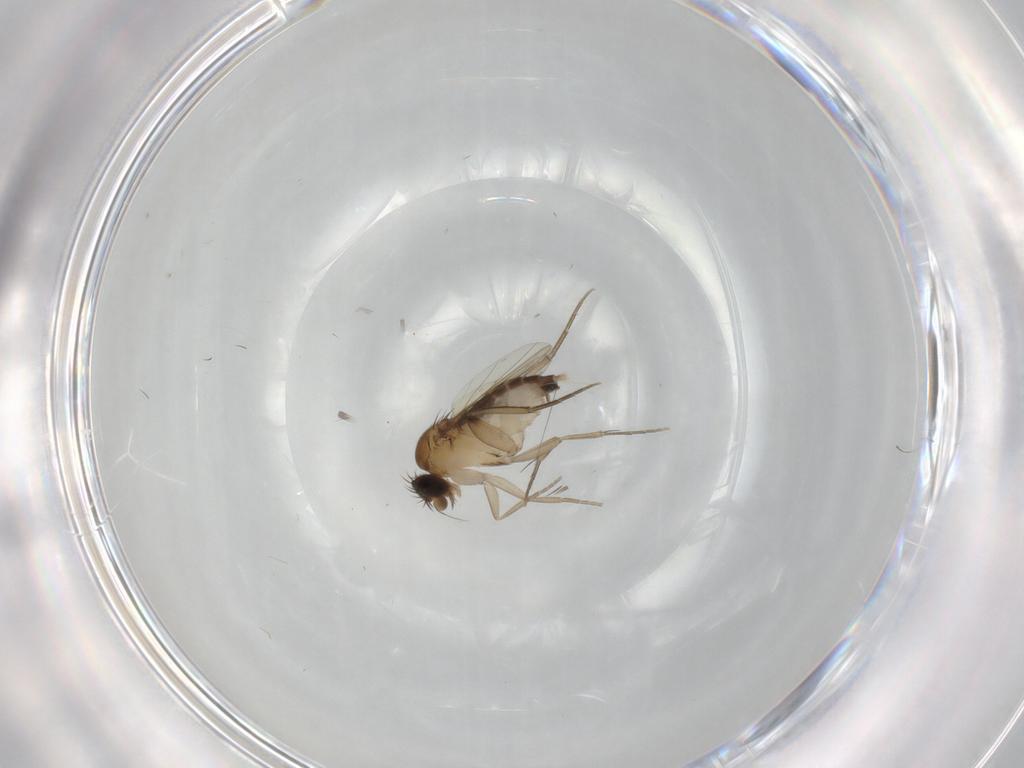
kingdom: Animalia
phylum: Arthropoda
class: Insecta
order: Diptera
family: Phoridae
